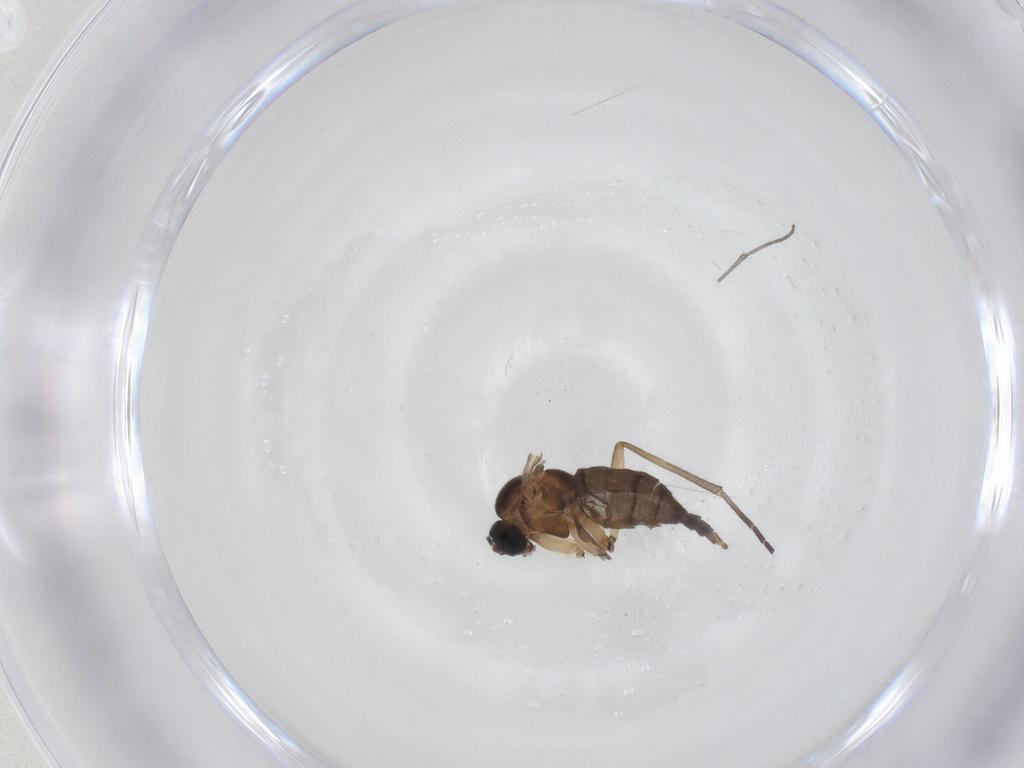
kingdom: Animalia
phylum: Arthropoda
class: Insecta
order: Diptera
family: Sciaridae
